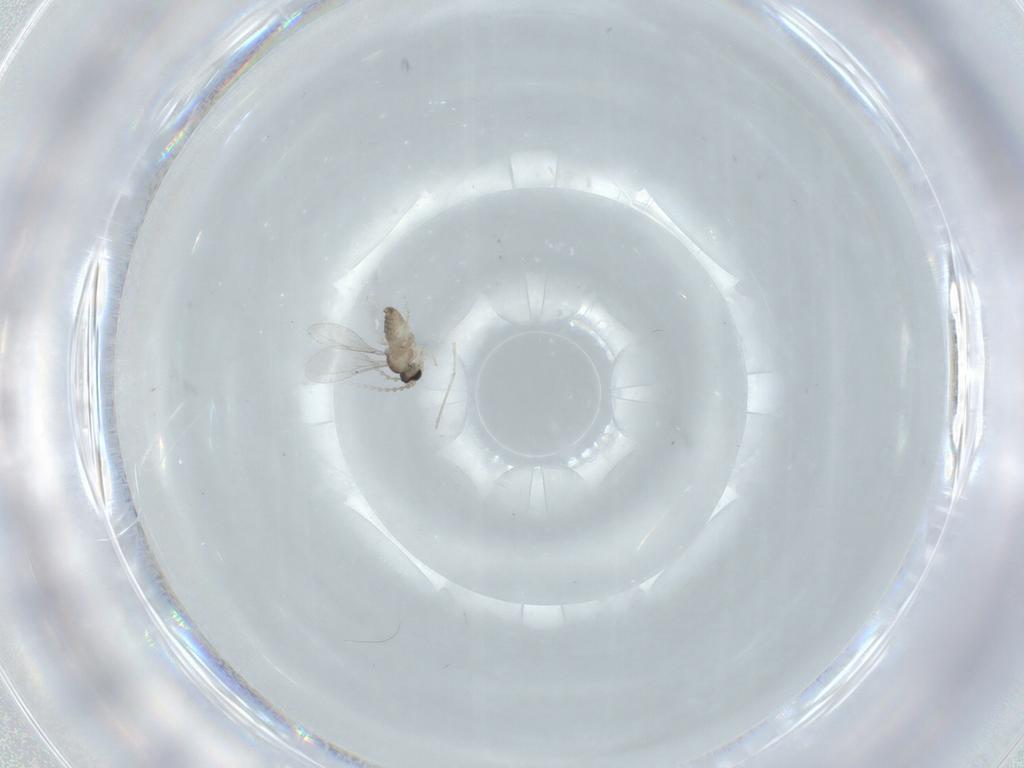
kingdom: Animalia
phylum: Arthropoda
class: Insecta
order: Diptera
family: Cecidomyiidae
